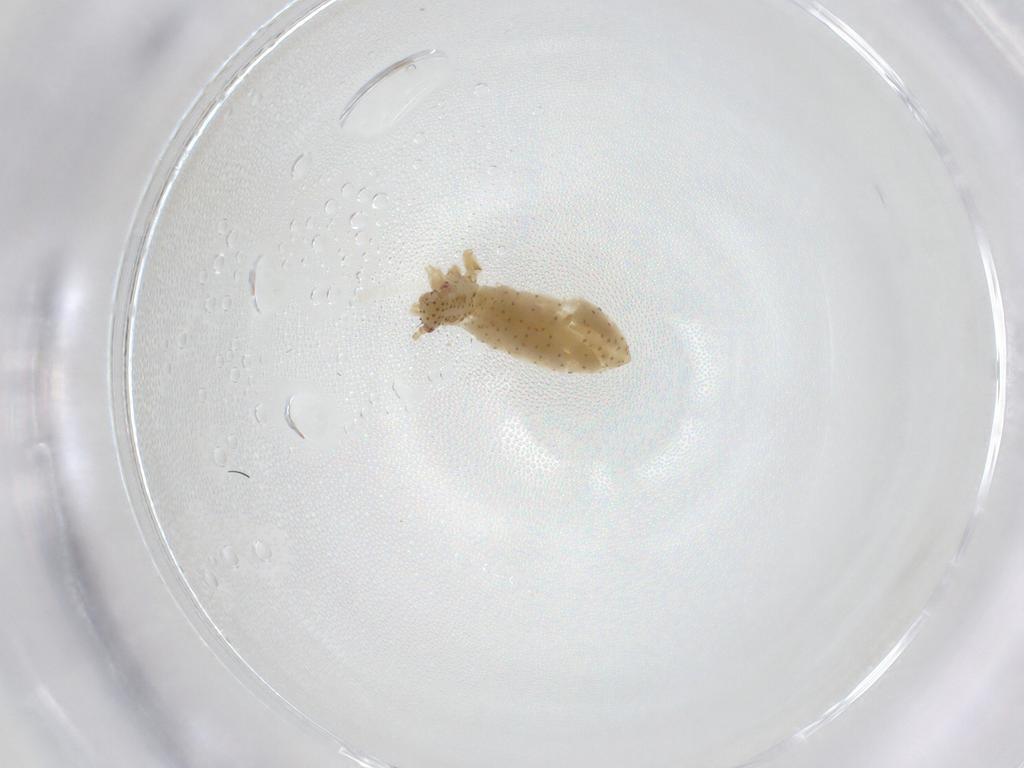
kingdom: Animalia
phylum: Arthropoda
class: Insecta
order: Hemiptera
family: Aphididae
